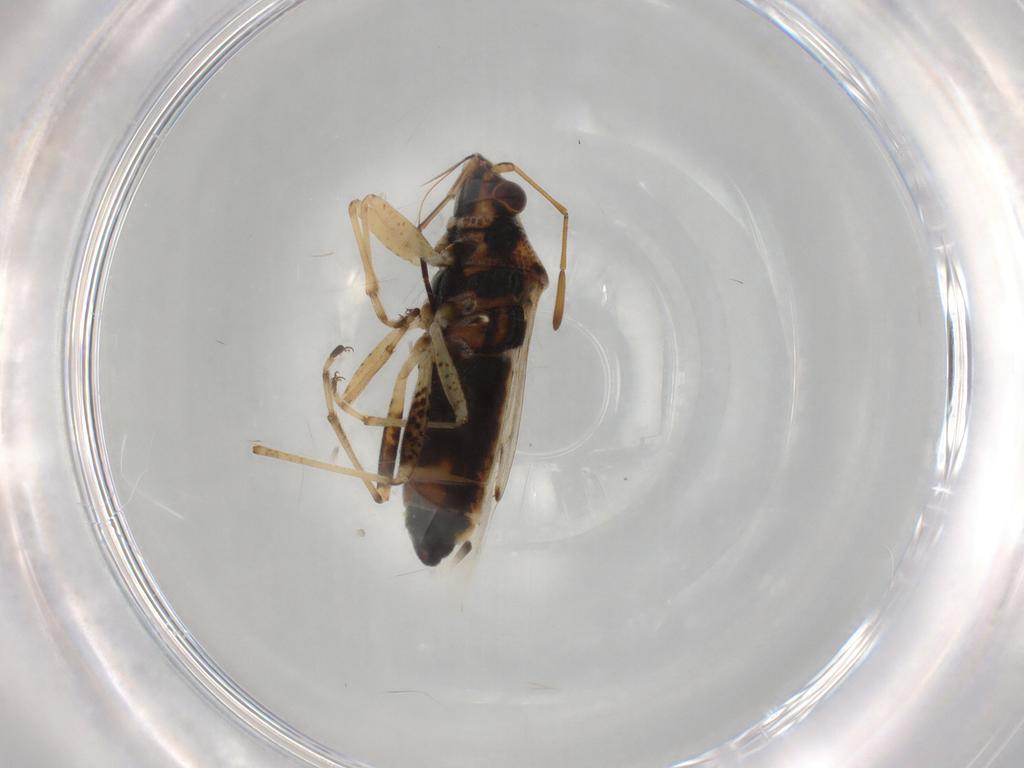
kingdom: Animalia
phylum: Arthropoda
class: Insecta
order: Hemiptera
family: Lygaeidae
